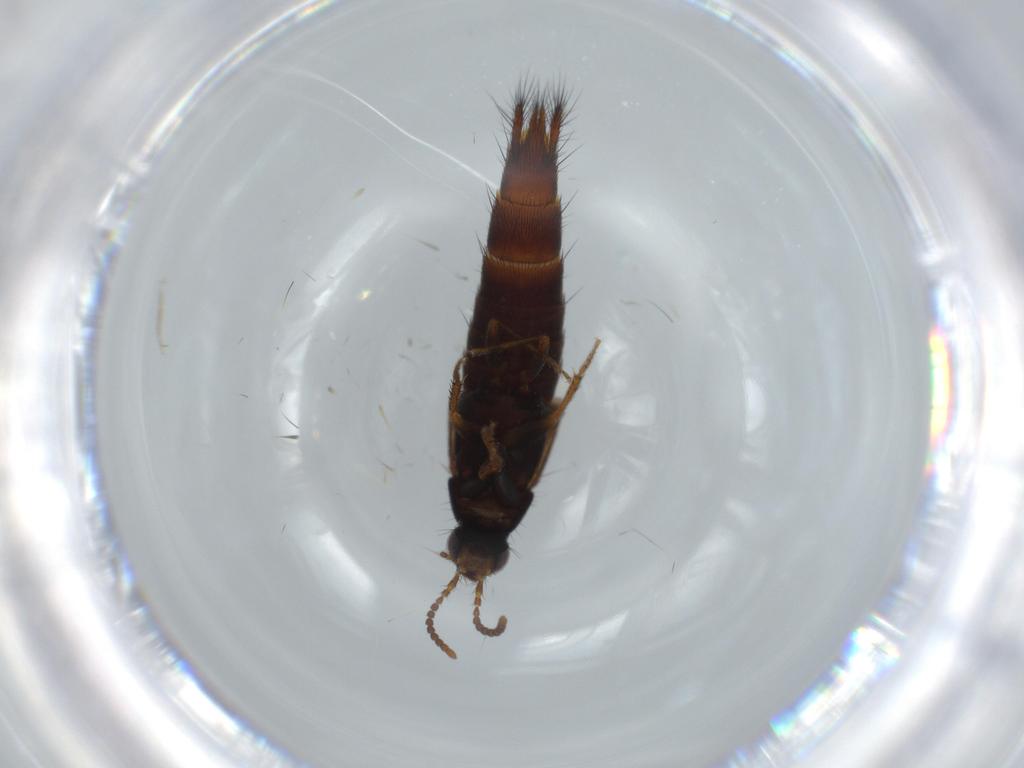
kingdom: Animalia
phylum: Arthropoda
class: Insecta
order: Coleoptera
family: Staphylinidae
